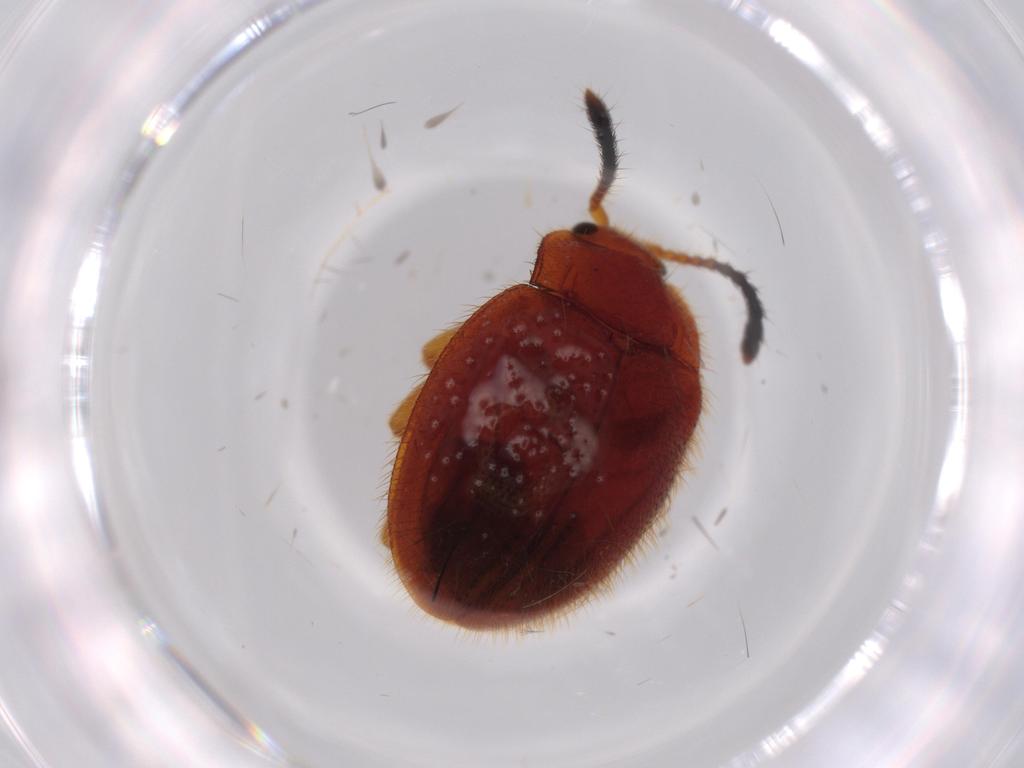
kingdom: Animalia
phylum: Arthropoda
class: Insecta
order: Coleoptera
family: Endomychidae
